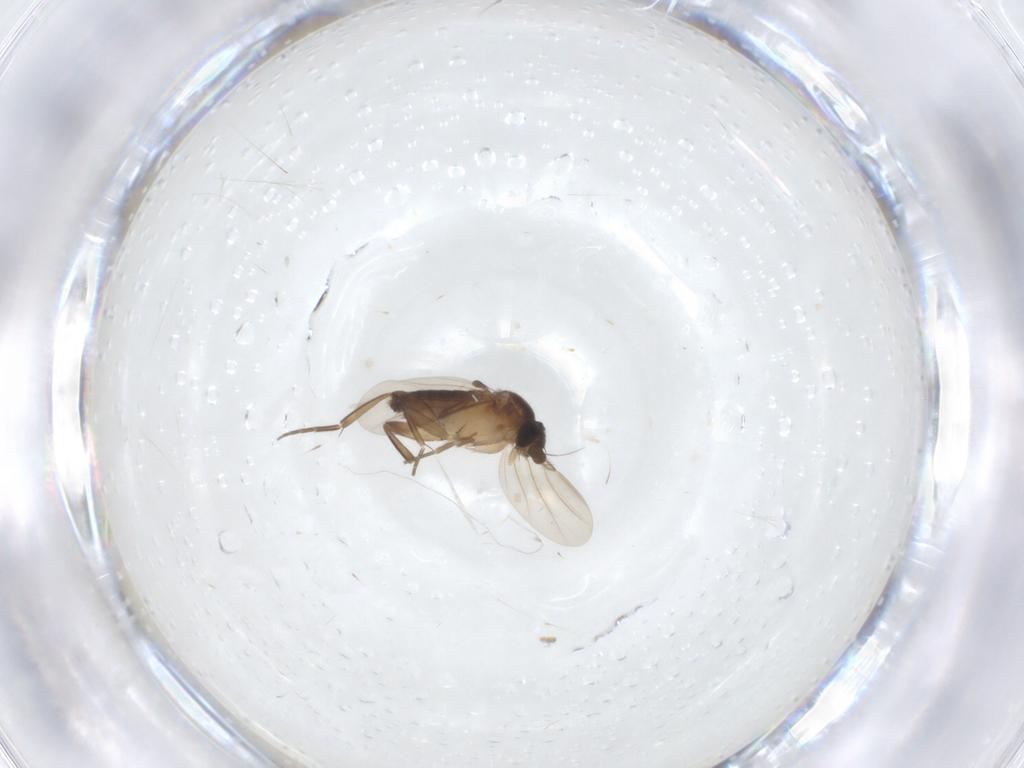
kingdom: Animalia
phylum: Arthropoda
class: Insecta
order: Diptera
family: Phoridae
